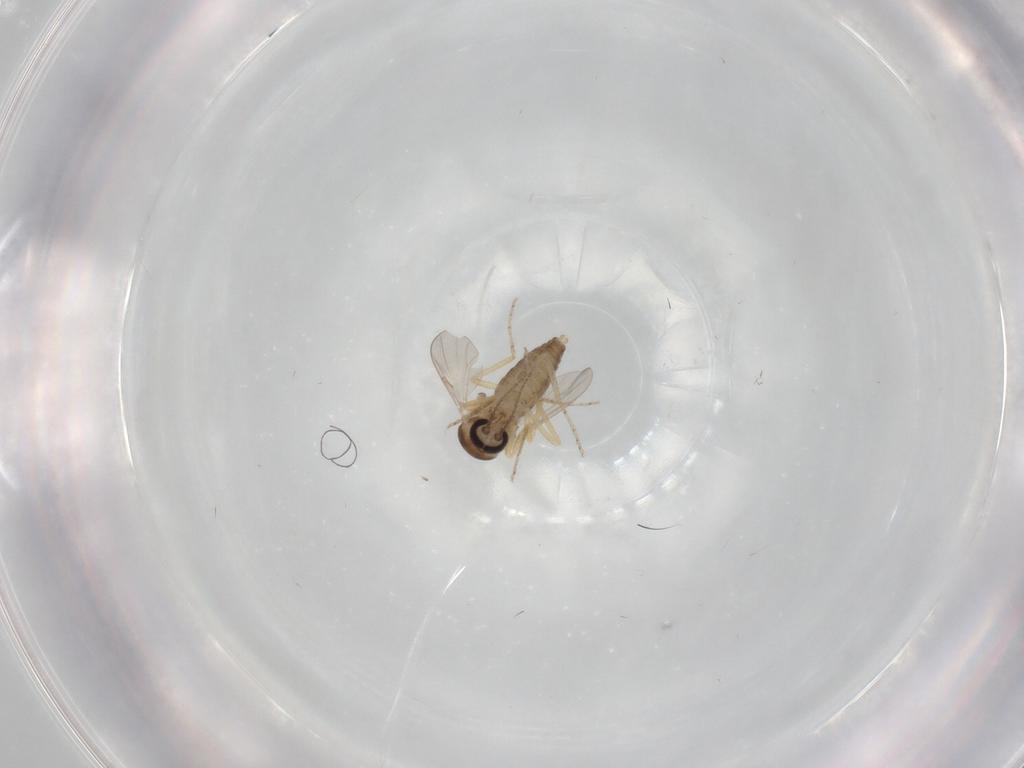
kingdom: Animalia
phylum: Arthropoda
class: Insecta
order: Diptera
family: Ceratopogonidae
